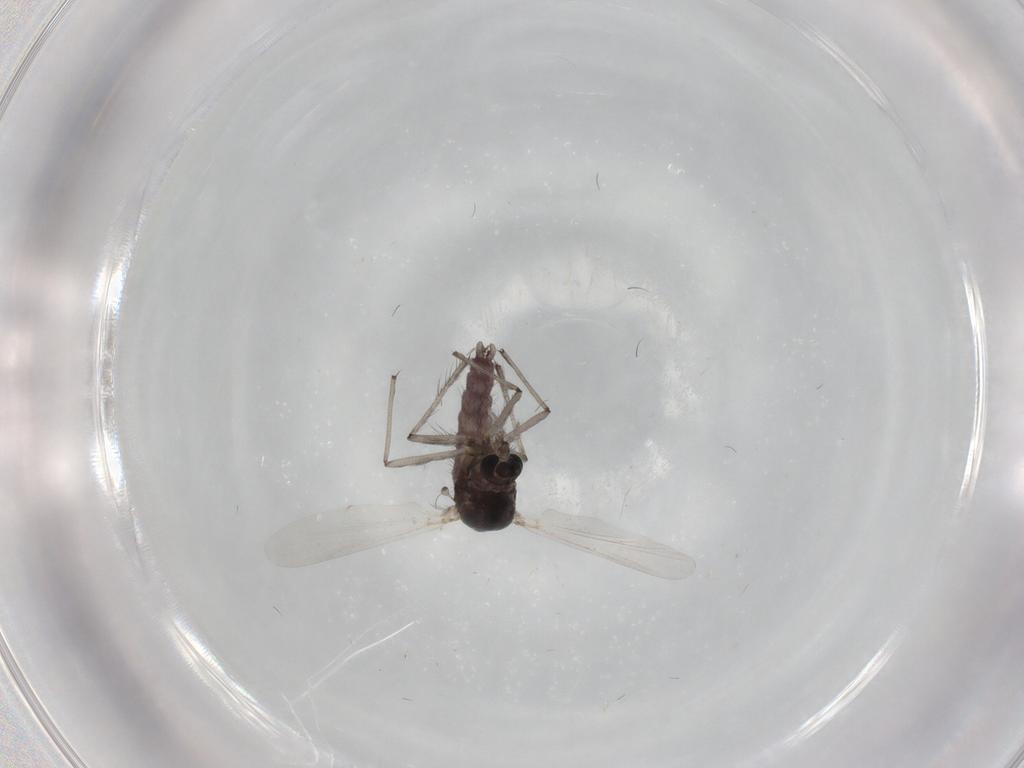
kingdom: Animalia
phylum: Arthropoda
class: Insecta
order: Diptera
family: Chironomidae
